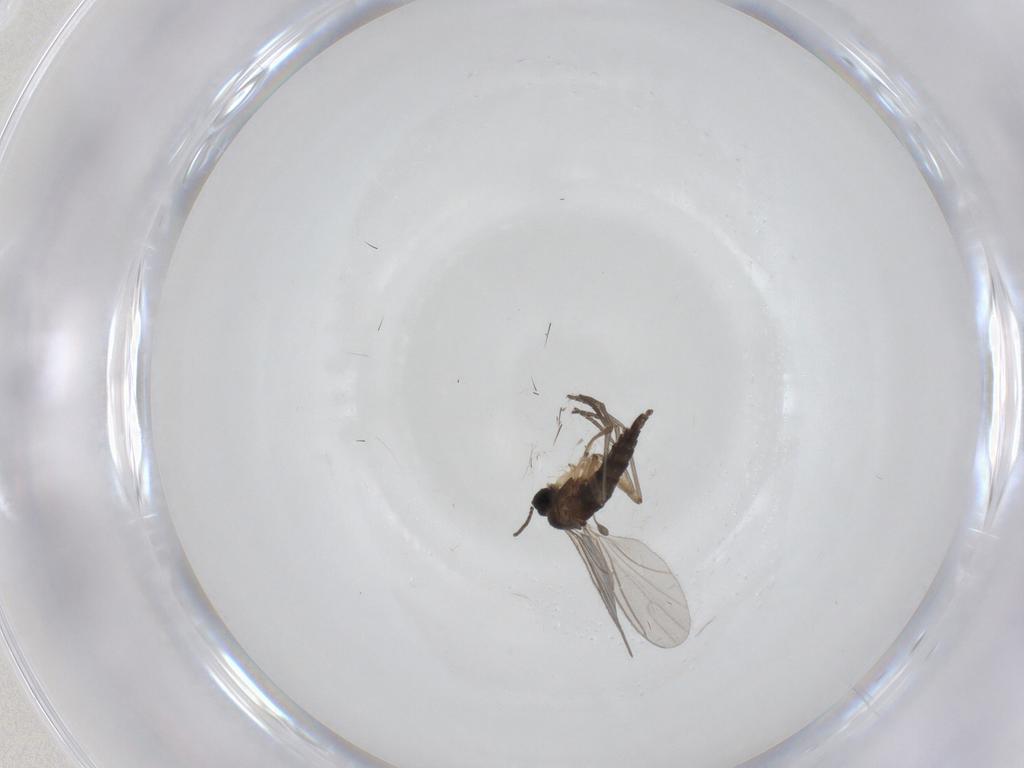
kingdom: Animalia
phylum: Arthropoda
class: Insecta
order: Diptera
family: Sciaridae
